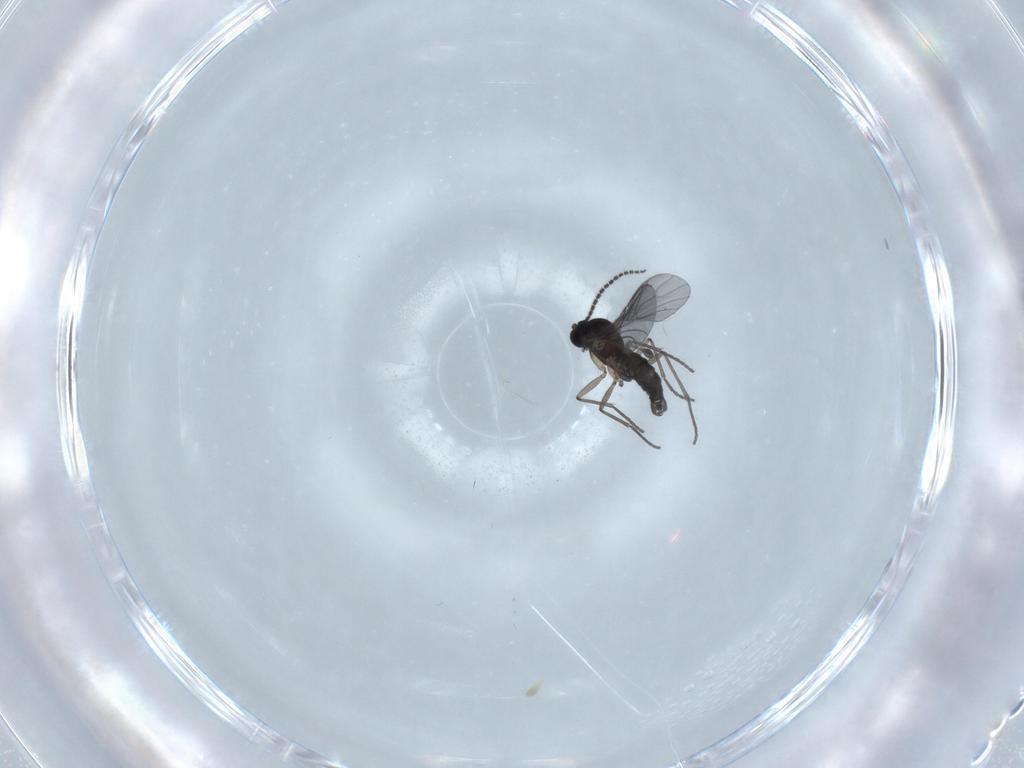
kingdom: Animalia
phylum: Arthropoda
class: Insecta
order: Diptera
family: Sciaridae
